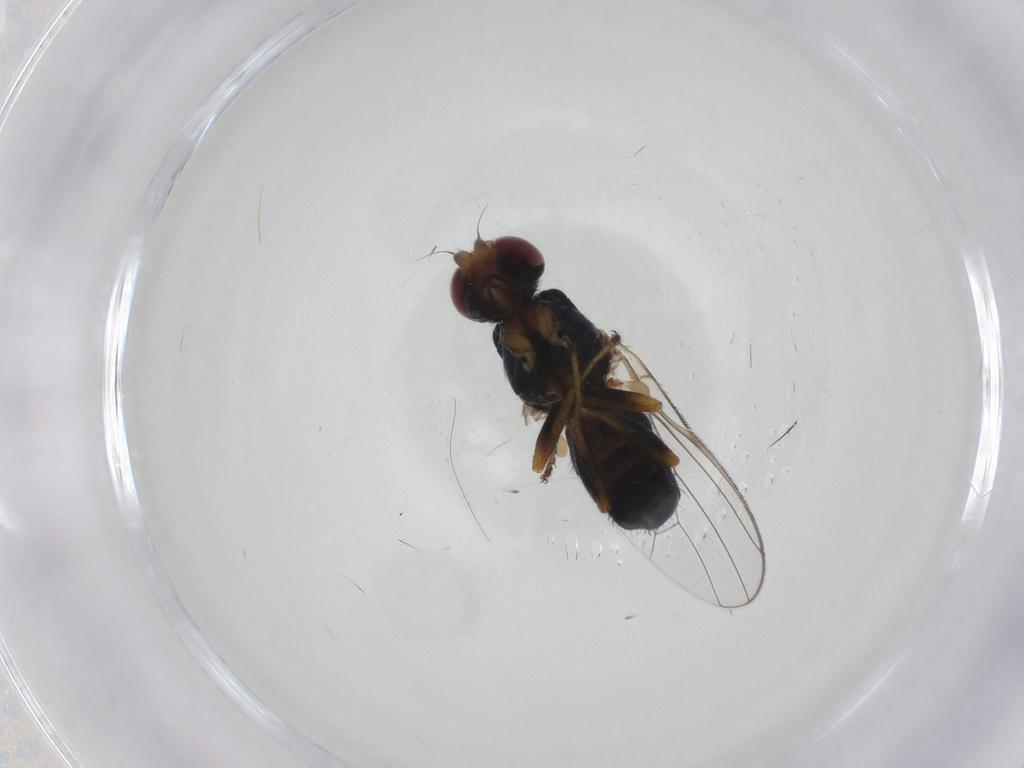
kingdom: Animalia
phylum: Arthropoda
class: Insecta
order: Diptera
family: Piophilidae
